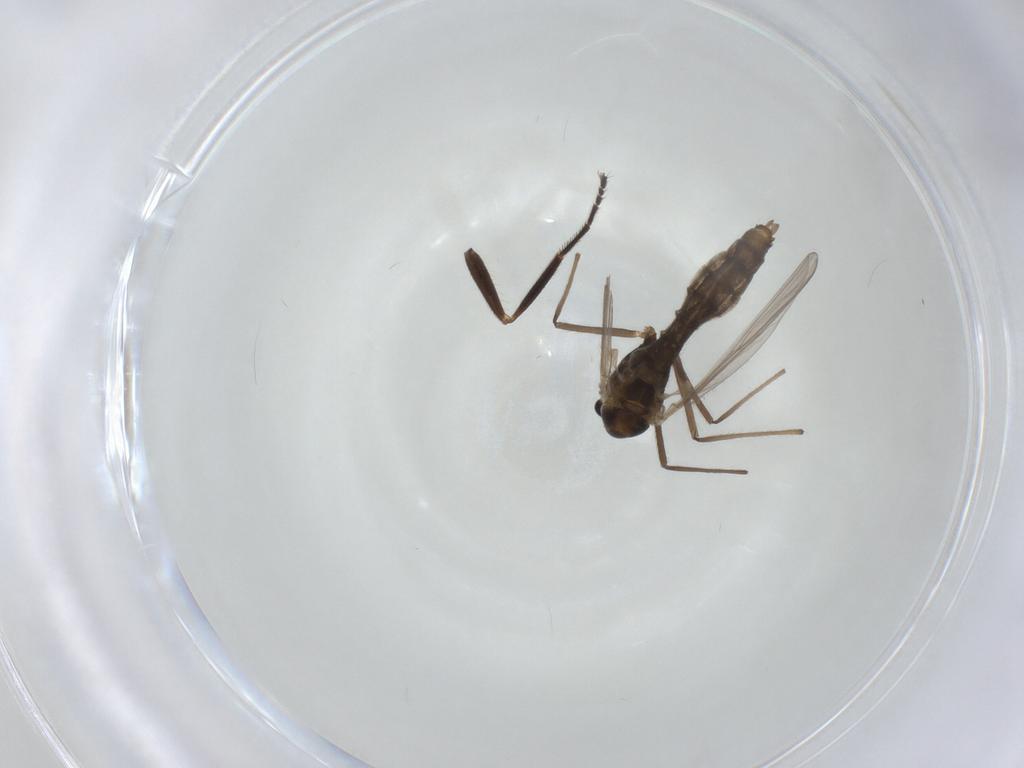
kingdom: Animalia
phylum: Arthropoda
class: Insecta
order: Diptera
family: Chironomidae
